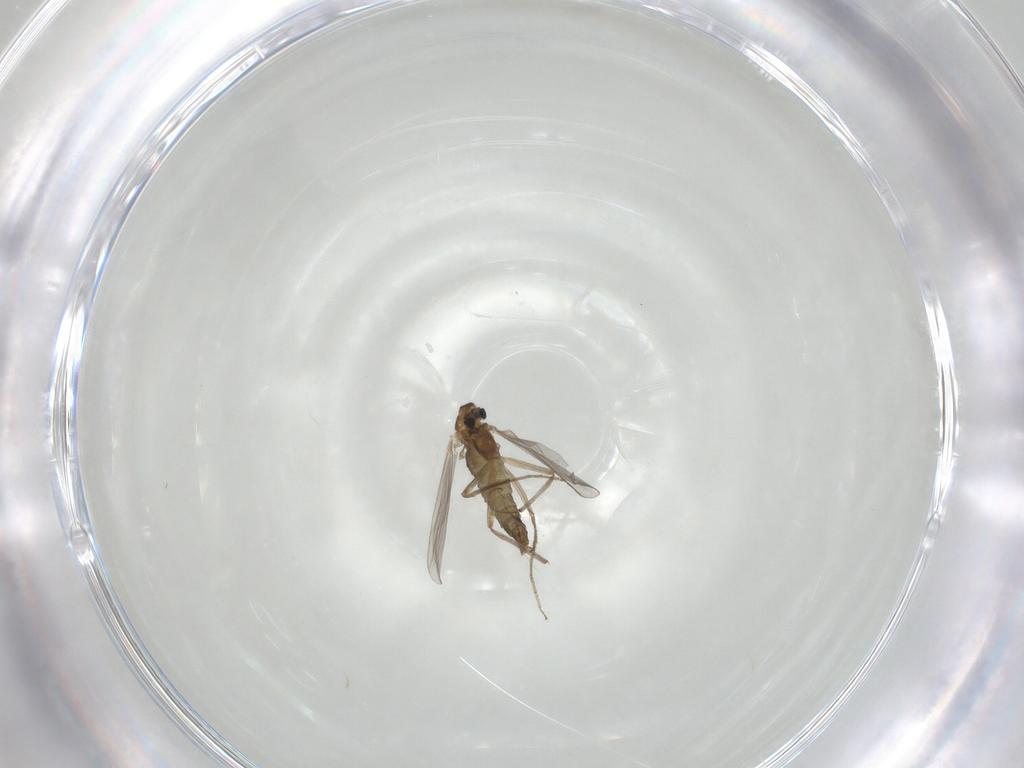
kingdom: Animalia
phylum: Arthropoda
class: Insecta
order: Diptera
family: Chironomidae
